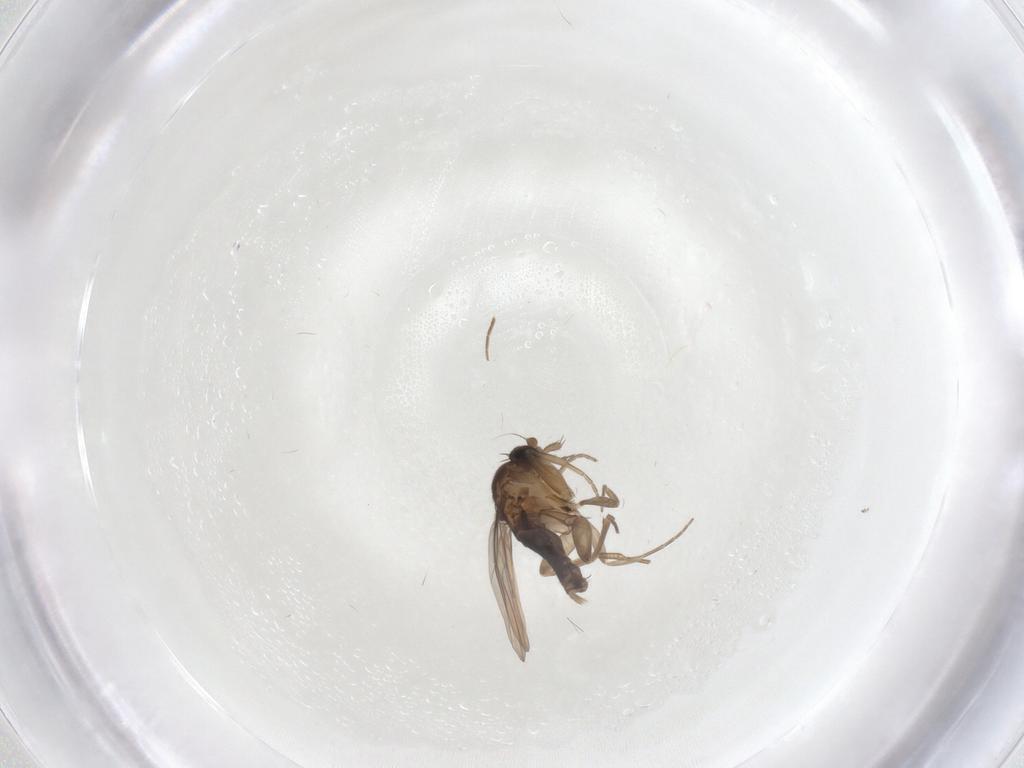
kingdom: Animalia
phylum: Arthropoda
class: Insecta
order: Diptera
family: Phoridae
